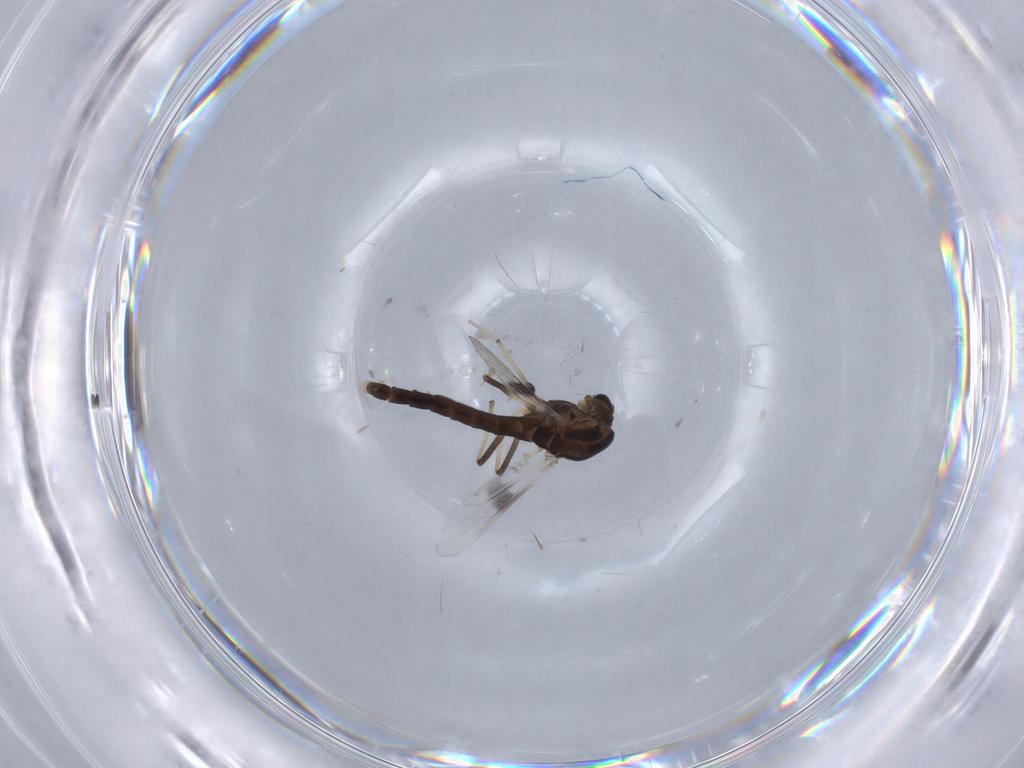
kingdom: Animalia
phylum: Arthropoda
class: Insecta
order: Diptera
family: Chironomidae
